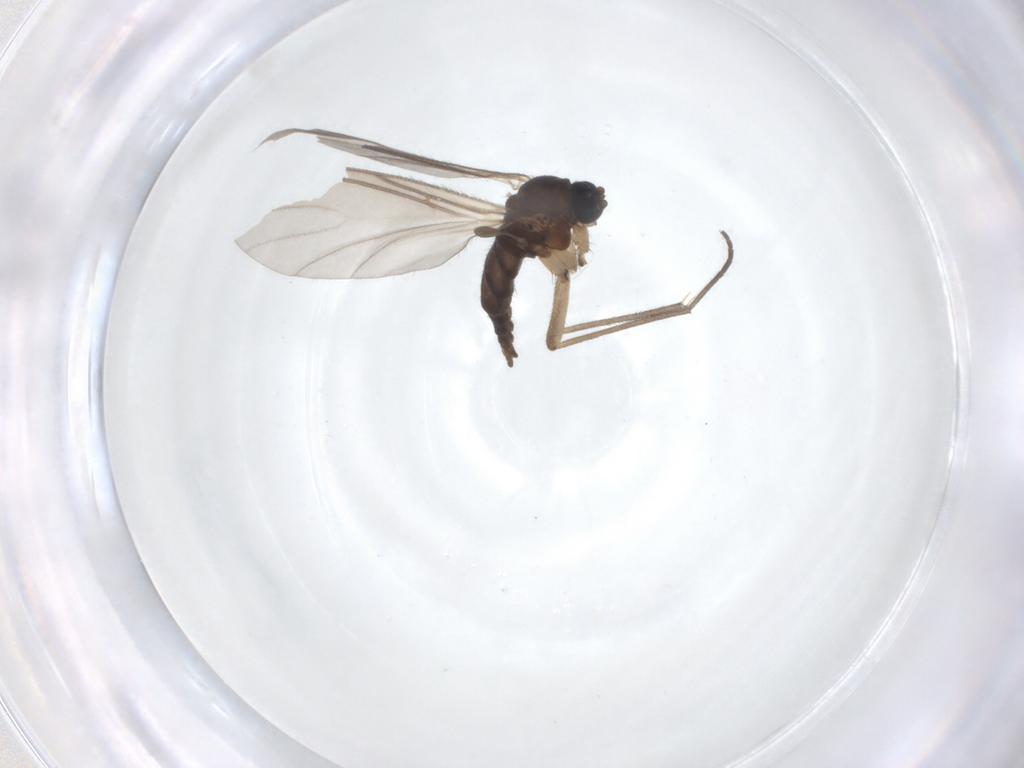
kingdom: Animalia
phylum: Arthropoda
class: Insecta
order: Diptera
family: Sciaridae
